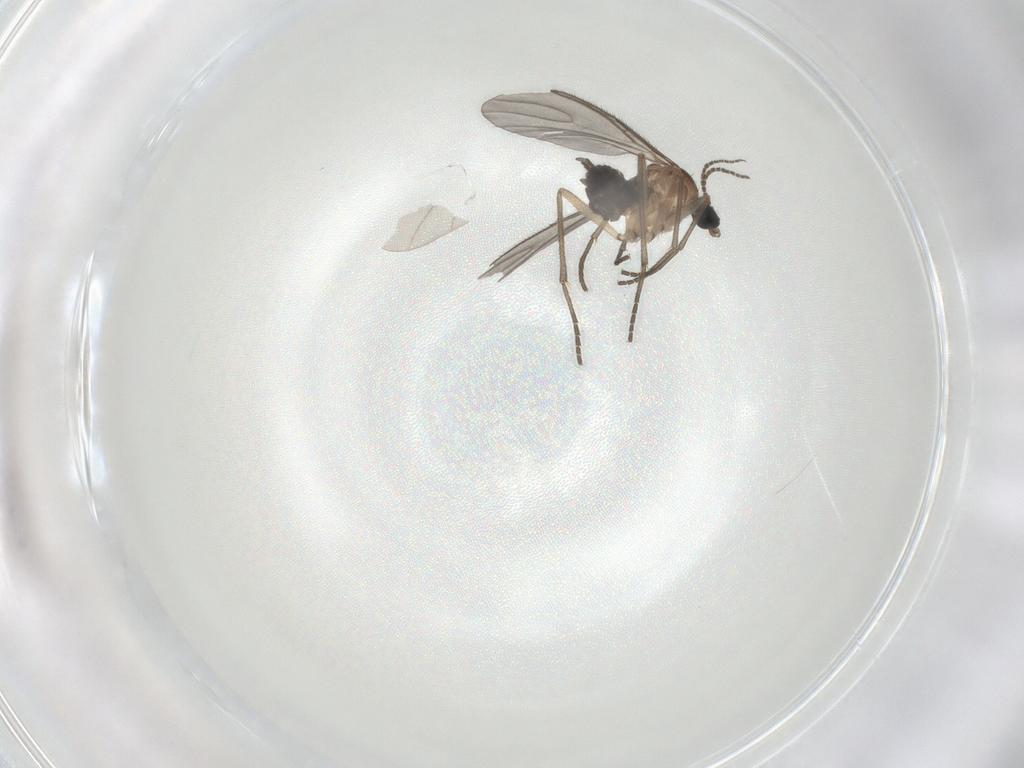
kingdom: Animalia
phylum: Arthropoda
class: Insecta
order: Diptera
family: Sciaridae
